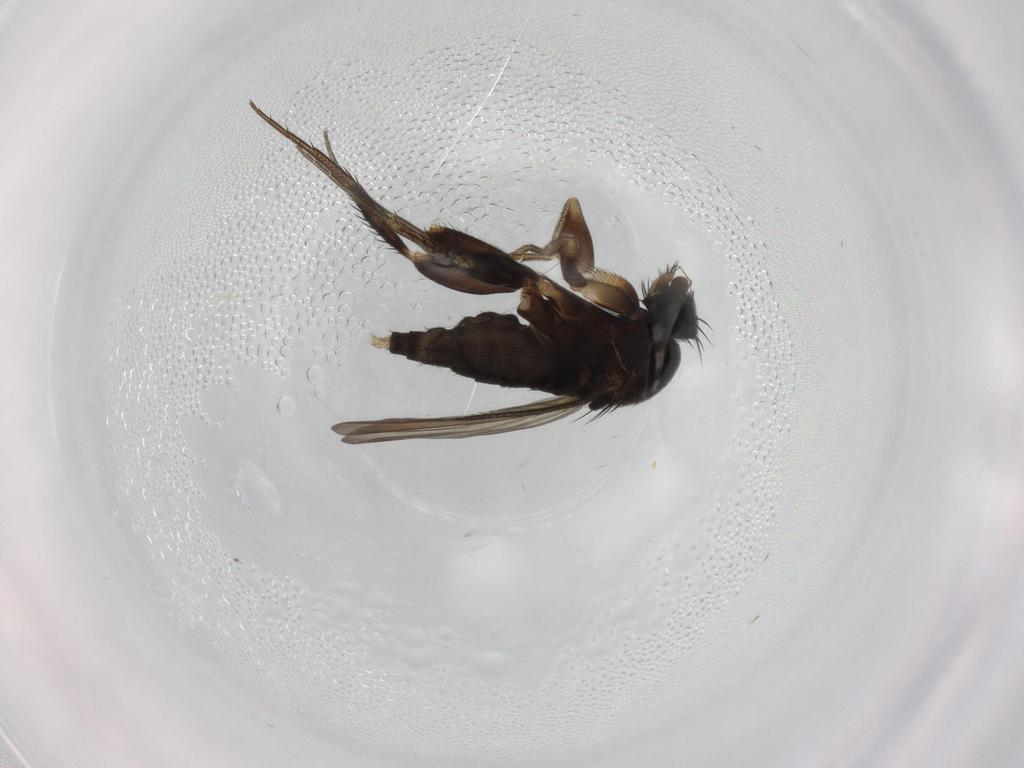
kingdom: Animalia
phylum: Arthropoda
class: Insecta
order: Diptera
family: Phoridae
